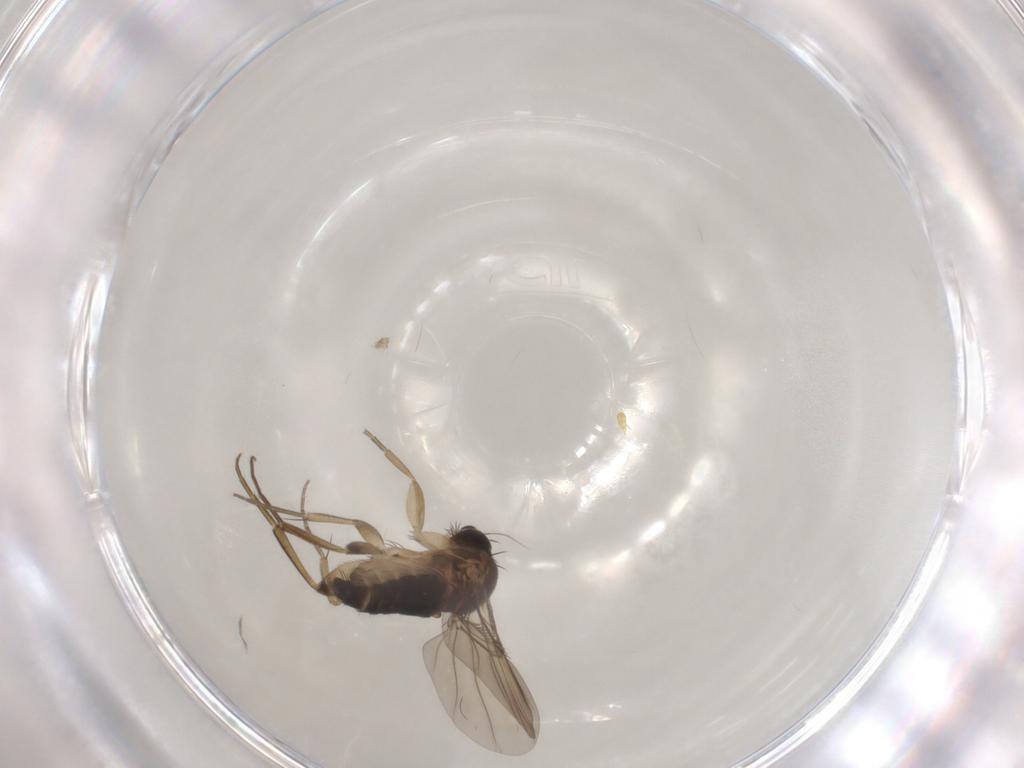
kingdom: Animalia
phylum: Arthropoda
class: Insecta
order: Diptera
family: Phoridae
